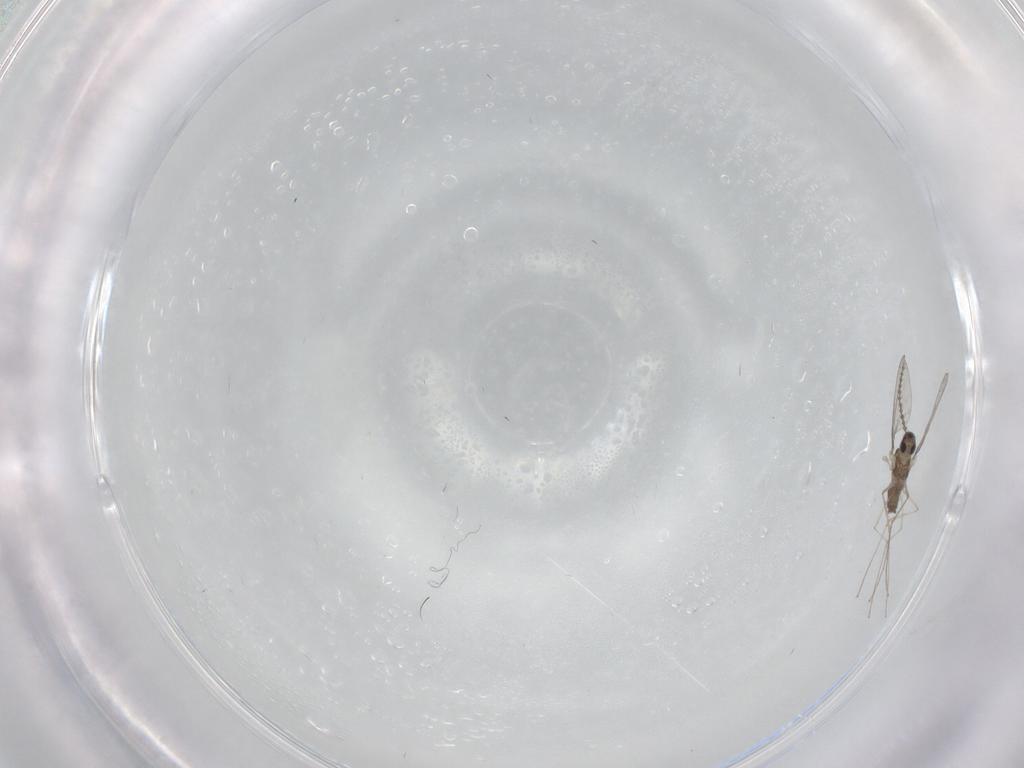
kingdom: Animalia
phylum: Arthropoda
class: Insecta
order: Diptera
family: Cecidomyiidae
